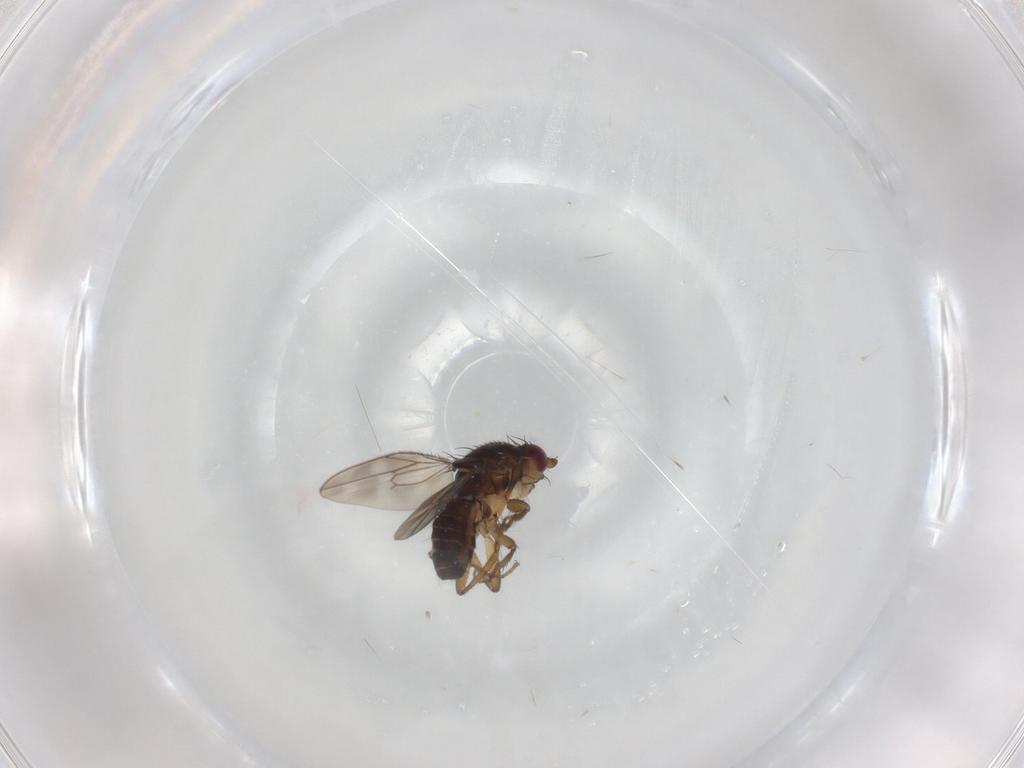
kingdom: Animalia
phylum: Arthropoda
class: Insecta
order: Diptera
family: Sphaeroceridae
